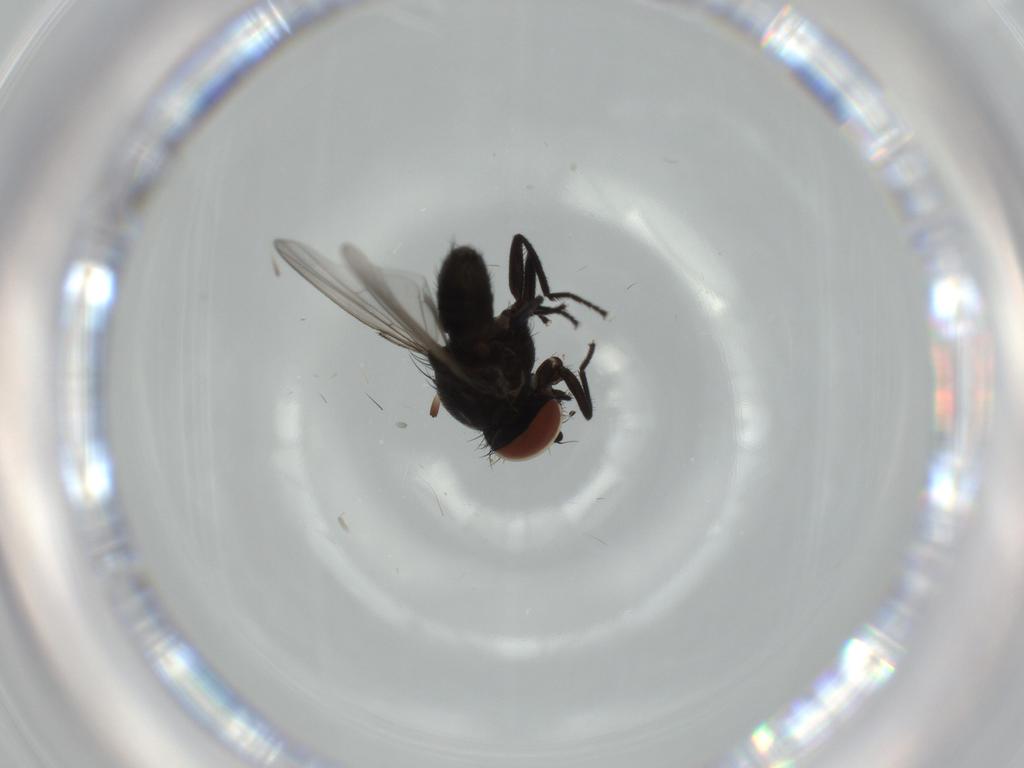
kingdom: Animalia
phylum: Arthropoda
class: Insecta
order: Diptera
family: Milichiidae
